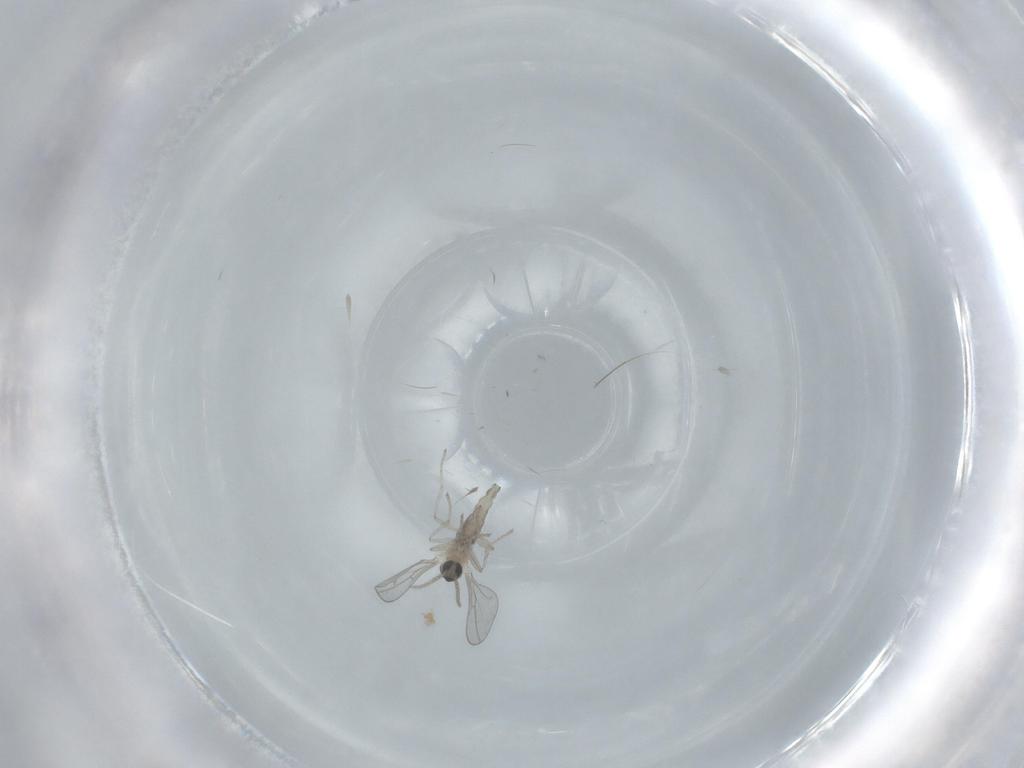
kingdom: Animalia
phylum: Arthropoda
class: Insecta
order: Diptera
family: Cecidomyiidae
